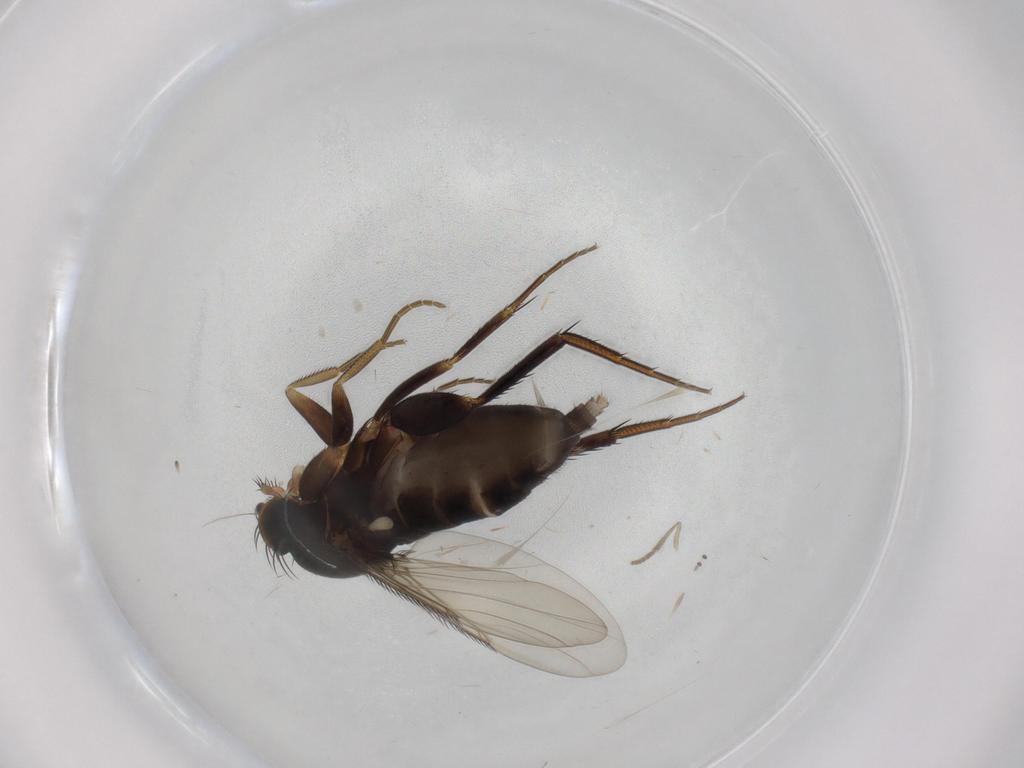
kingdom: Animalia
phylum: Arthropoda
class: Insecta
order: Diptera
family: Phoridae
